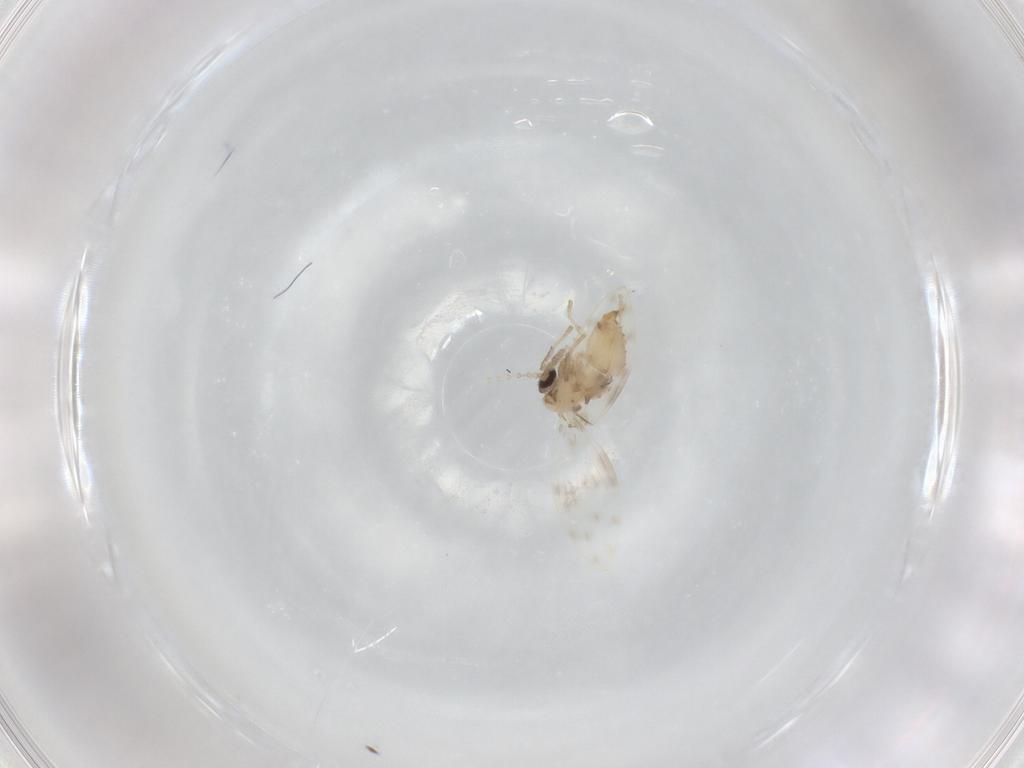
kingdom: Animalia
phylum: Arthropoda
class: Insecta
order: Diptera
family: Psychodidae
